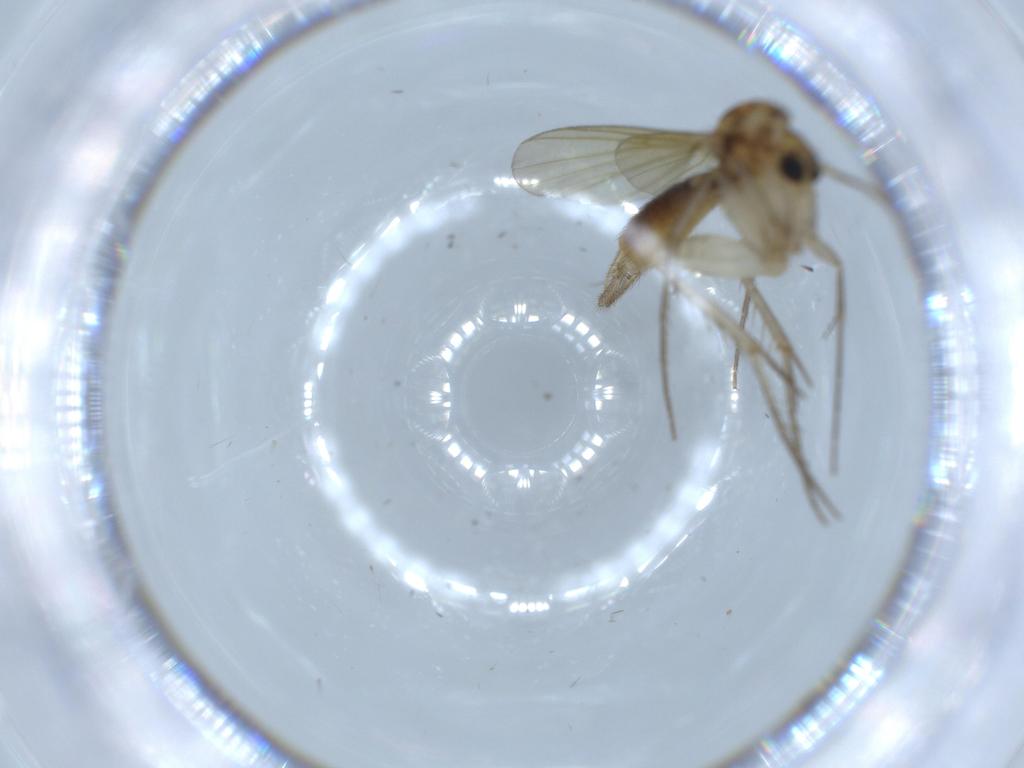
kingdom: Animalia
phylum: Arthropoda
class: Insecta
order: Diptera
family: Mycetophilidae
